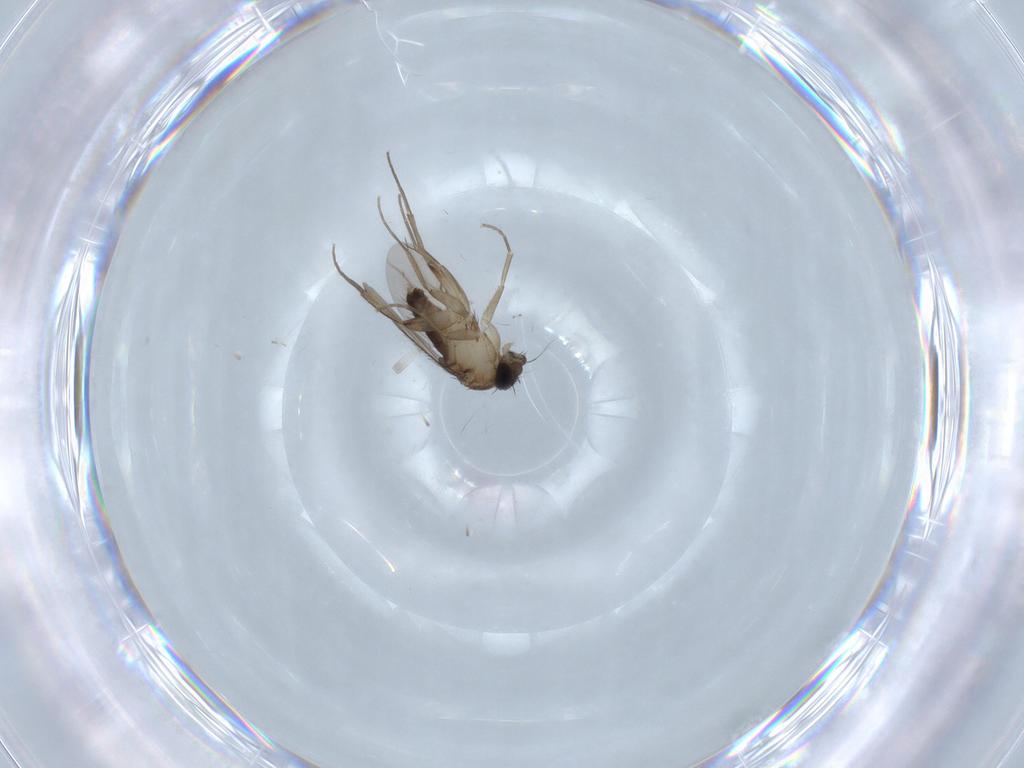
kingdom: Animalia
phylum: Arthropoda
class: Insecta
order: Diptera
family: Phoridae
